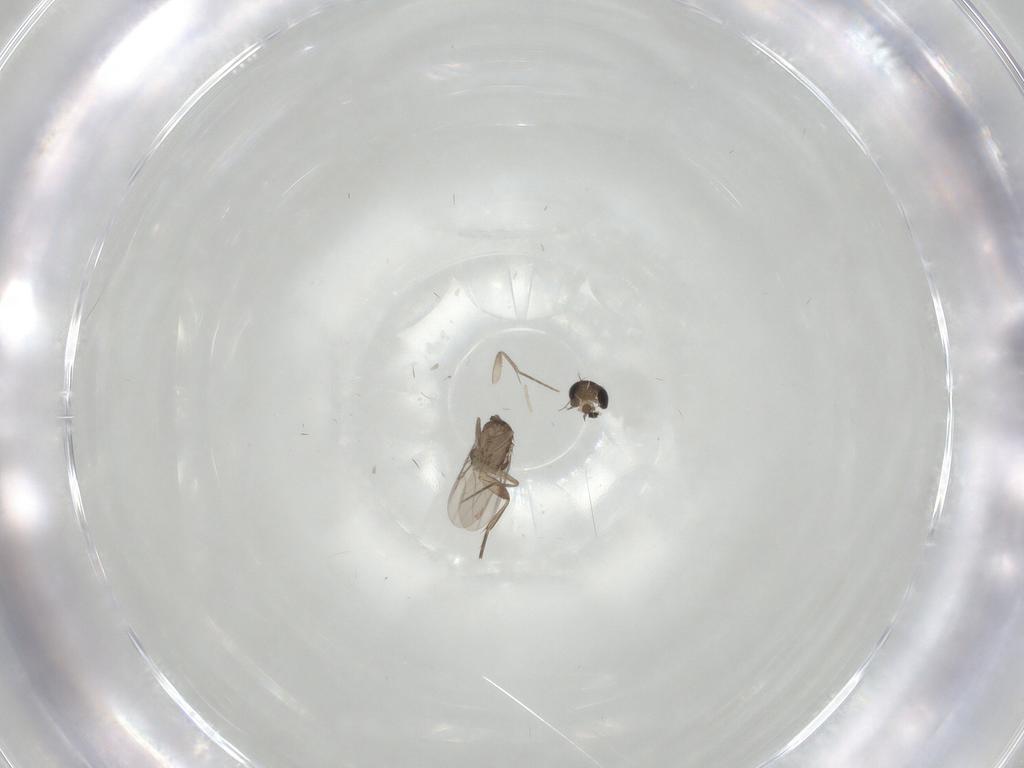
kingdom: Animalia
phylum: Arthropoda
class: Insecta
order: Diptera
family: Phoridae
